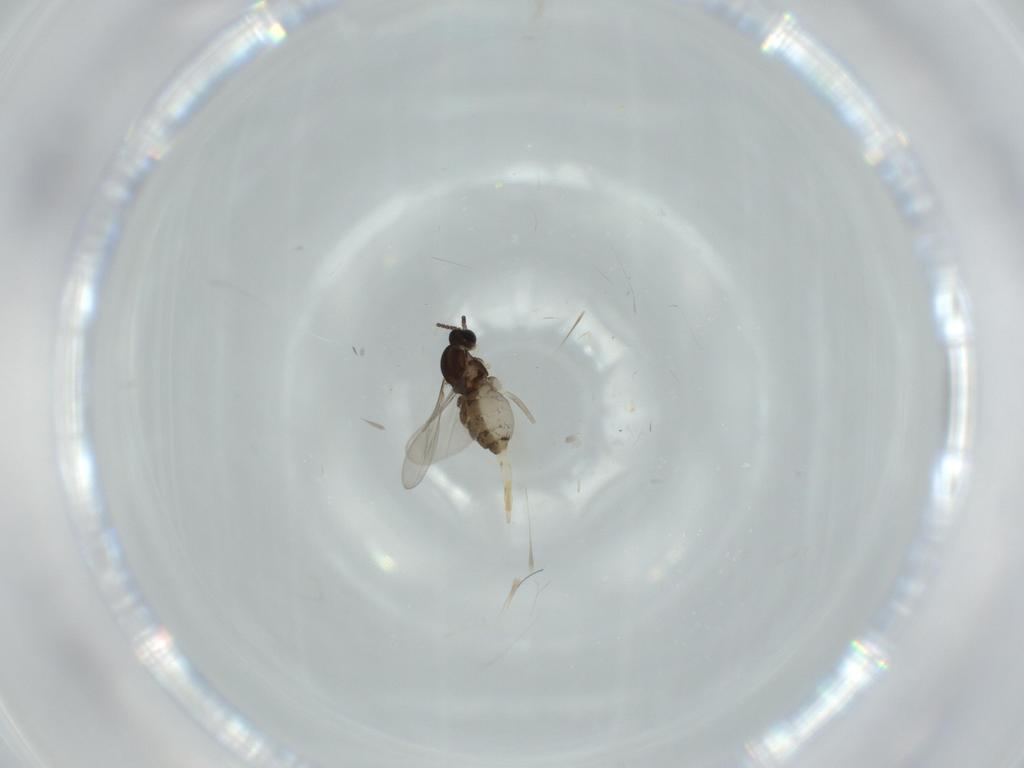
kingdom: Animalia
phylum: Arthropoda
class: Insecta
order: Diptera
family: Cecidomyiidae
